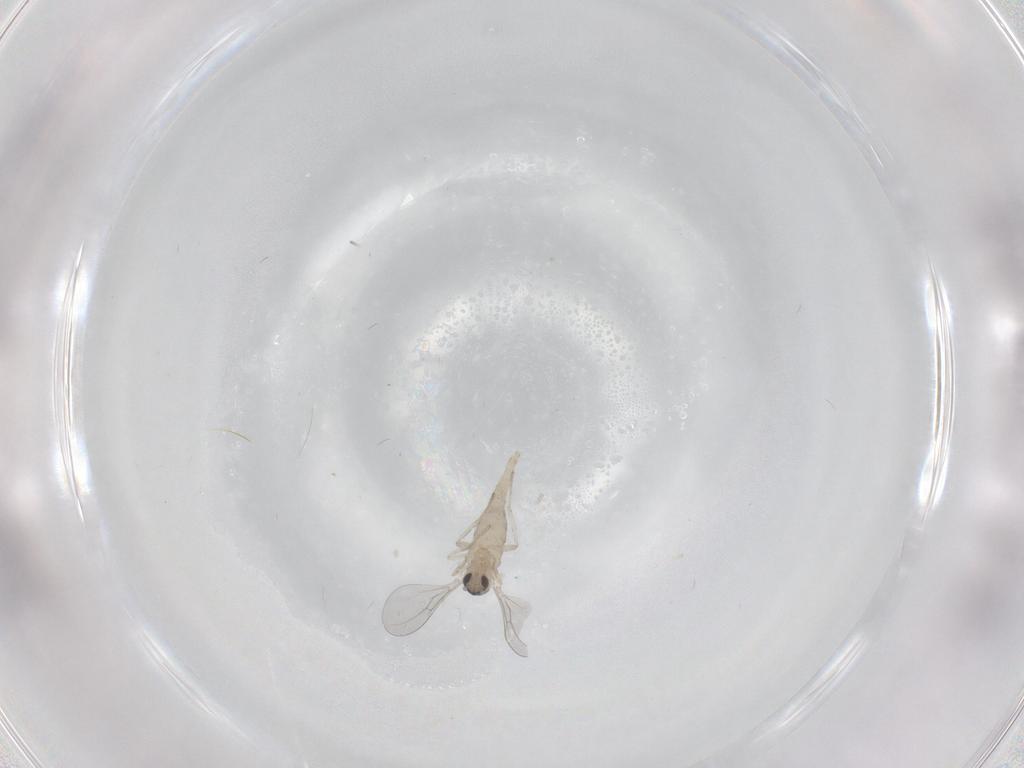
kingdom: Animalia
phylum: Arthropoda
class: Insecta
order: Diptera
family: Cecidomyiidae
